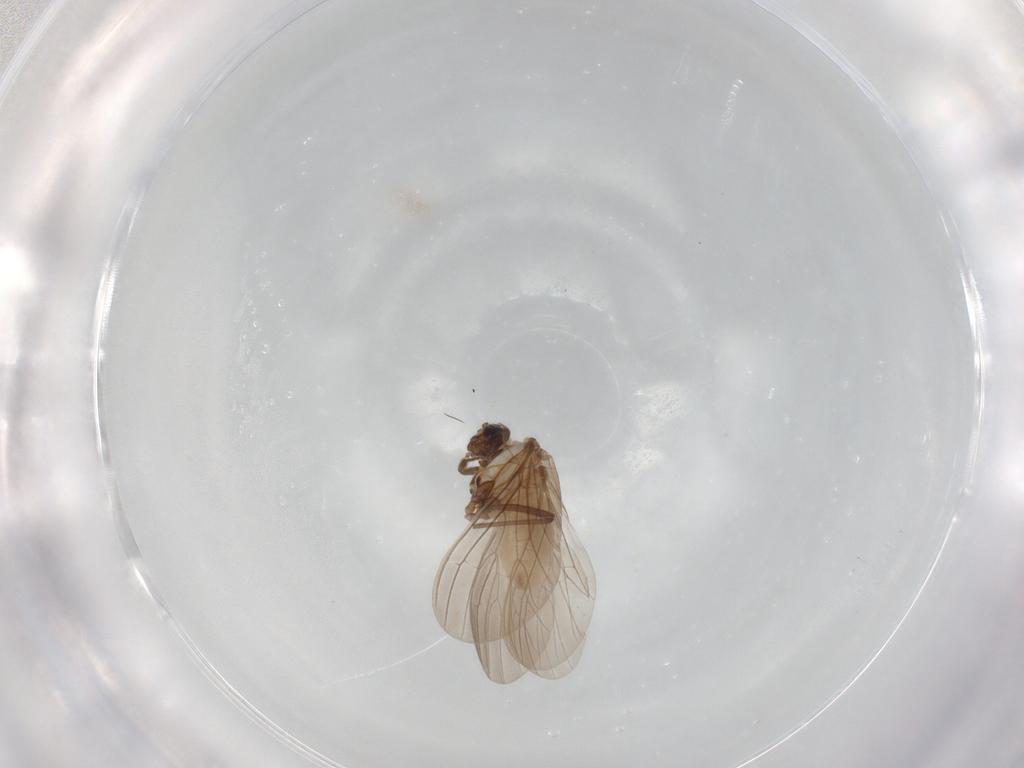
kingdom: Animalia
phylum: Arthropoda
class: Insecta
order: Neuroptera
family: Coniopterygidae
